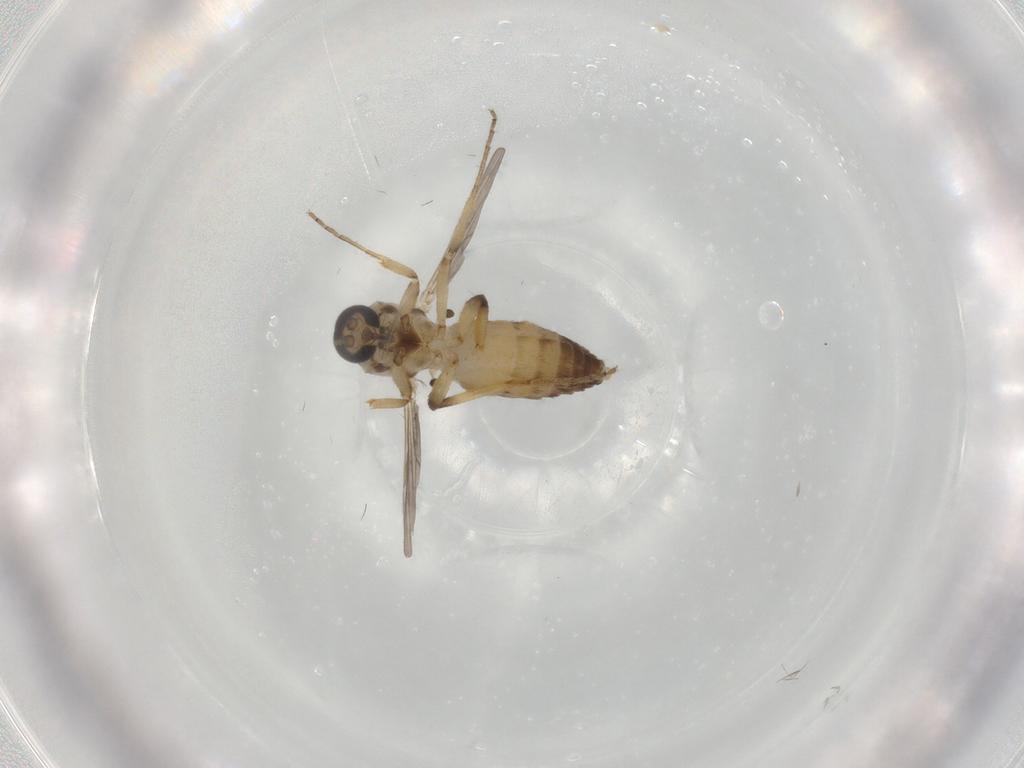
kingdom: Animalia
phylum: Arthropoda
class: Insecta
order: Diptera
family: Ceratopogonidae
